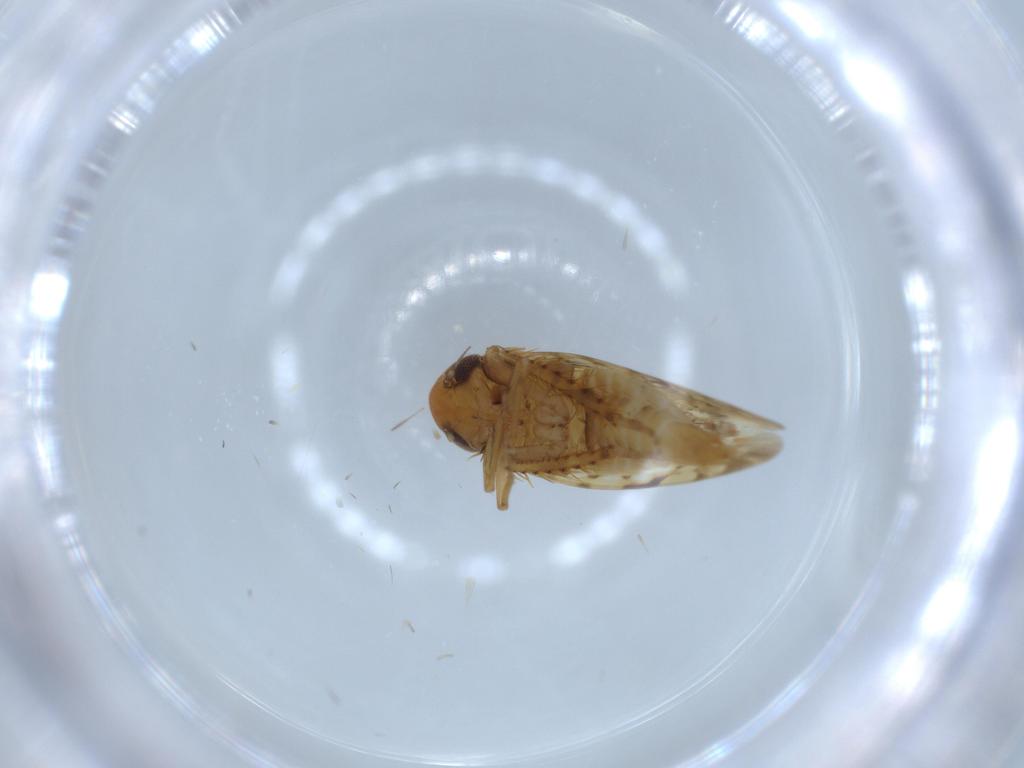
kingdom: Animalia
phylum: Arthropoda
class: Insecta
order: Hemiptera
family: Cicadellidae
